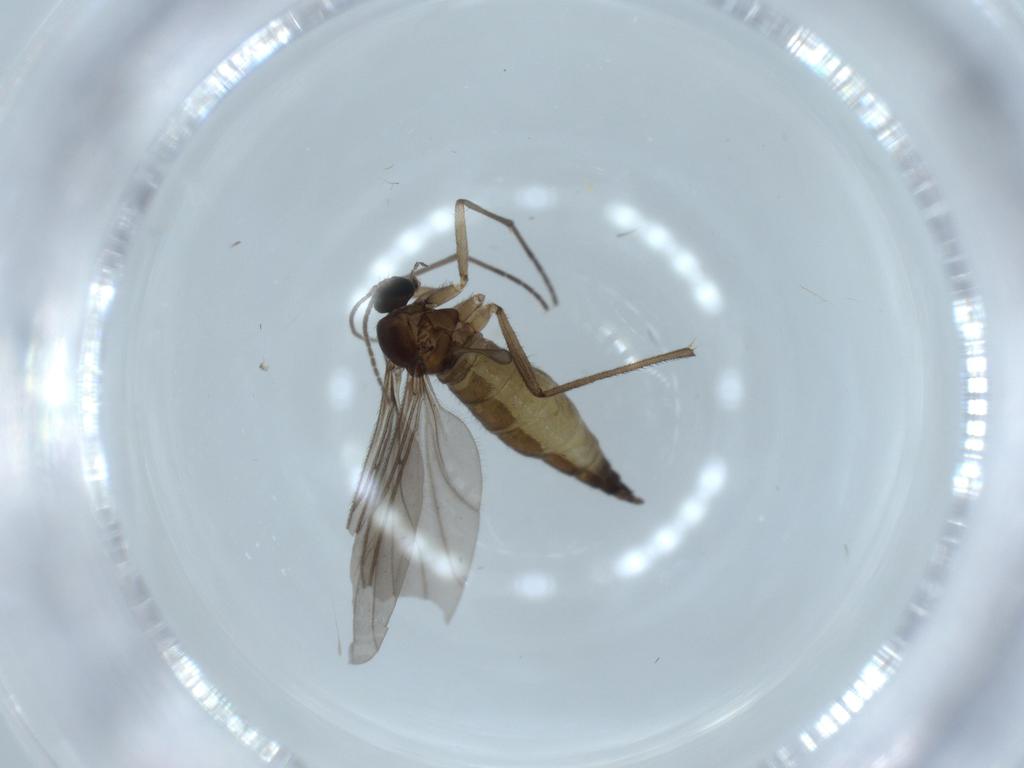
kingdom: Animalia
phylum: Arthropoda
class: Insecta
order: Diptera
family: Sciaridae
